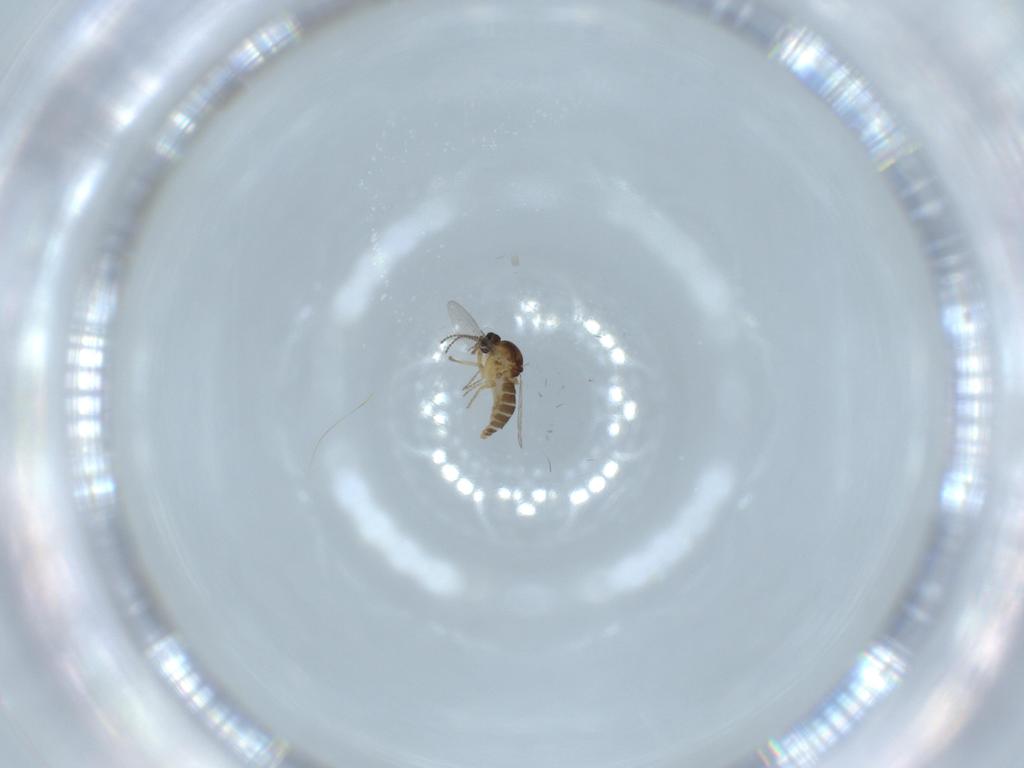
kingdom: Animalia
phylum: Arthropoda
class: Insecta
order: Diptera
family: Ceratopogonidae
